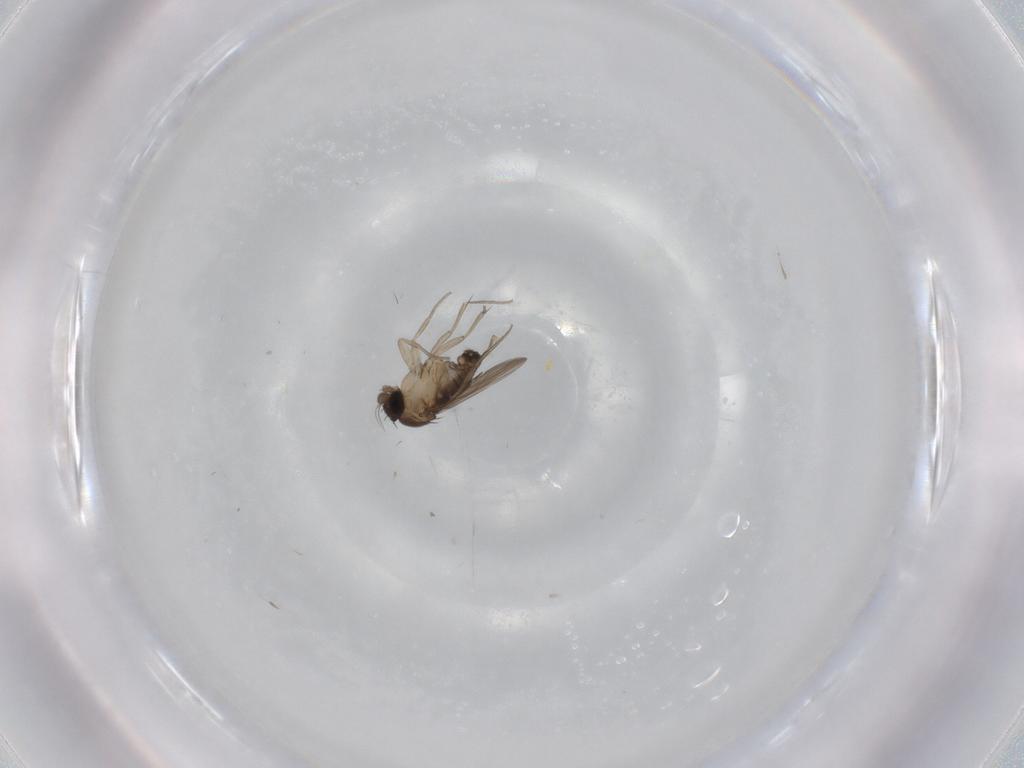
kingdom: Animalia
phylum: Arthropoda
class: Insecta
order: Diptera
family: Phoridae
